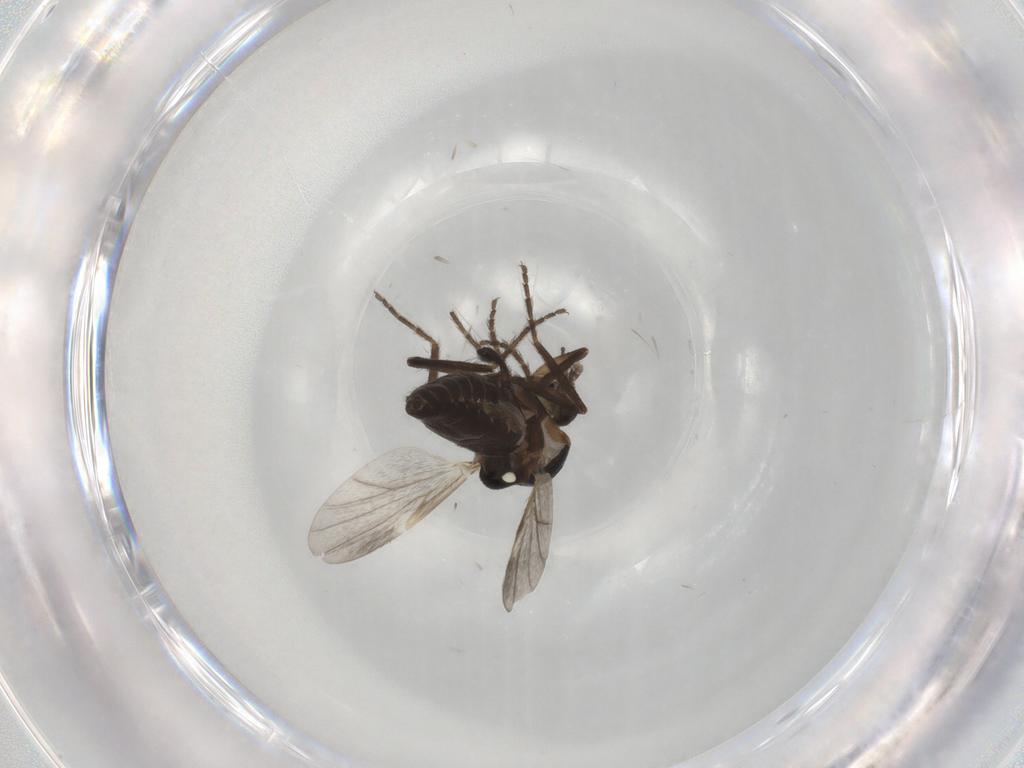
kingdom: Animalia
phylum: Arthropoda
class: Insecta
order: Diptera
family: Ceratopogonidae
